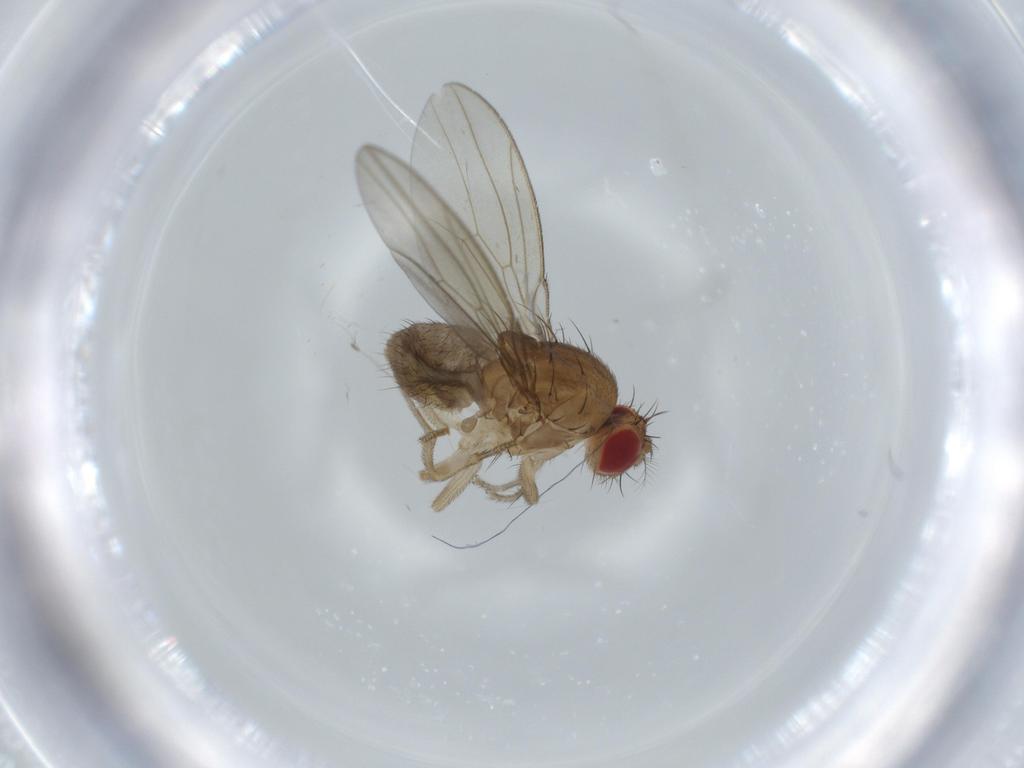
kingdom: Animalia
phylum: Arthropoda
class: Insecta
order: Diptera
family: Drosophilidae
